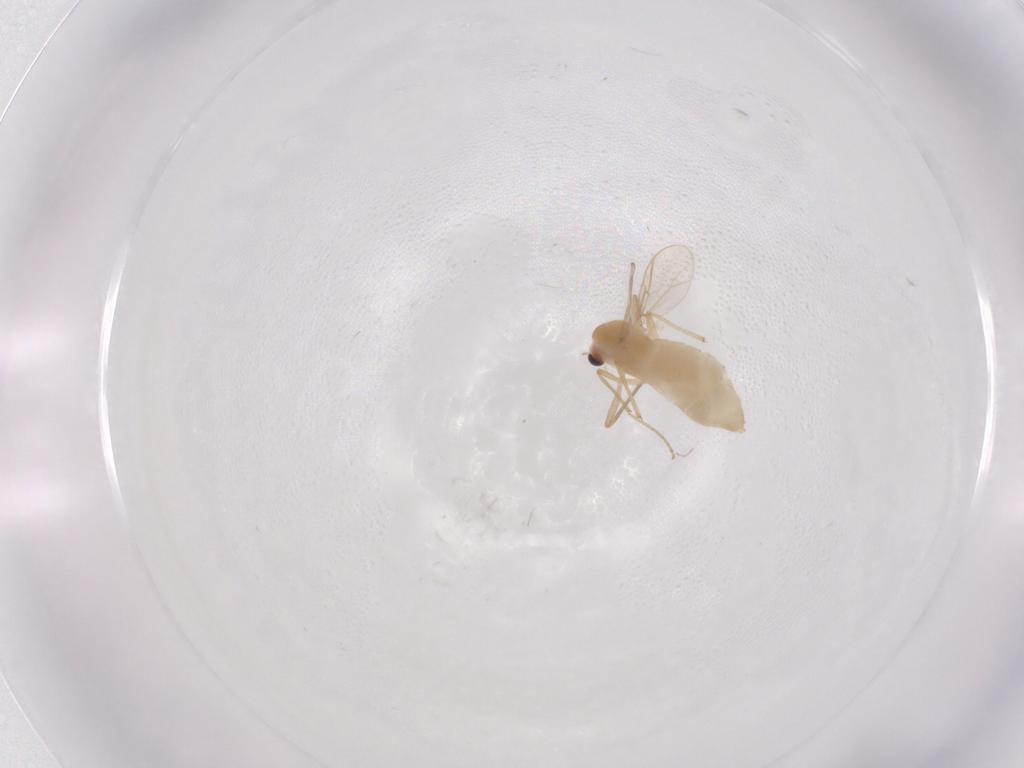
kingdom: Animalia
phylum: Arthropoda
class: Insecta
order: Diptera
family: Chironomidae
